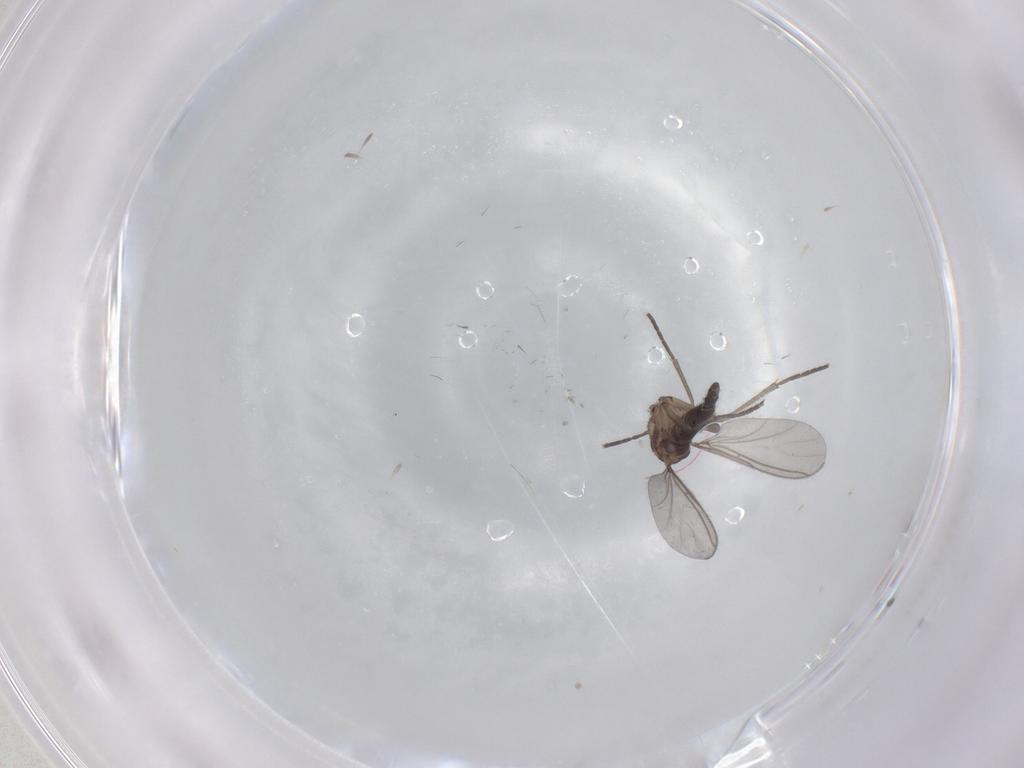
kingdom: Animalia
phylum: Arthropoda
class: Insecta
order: Diptera
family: Sciaridae
